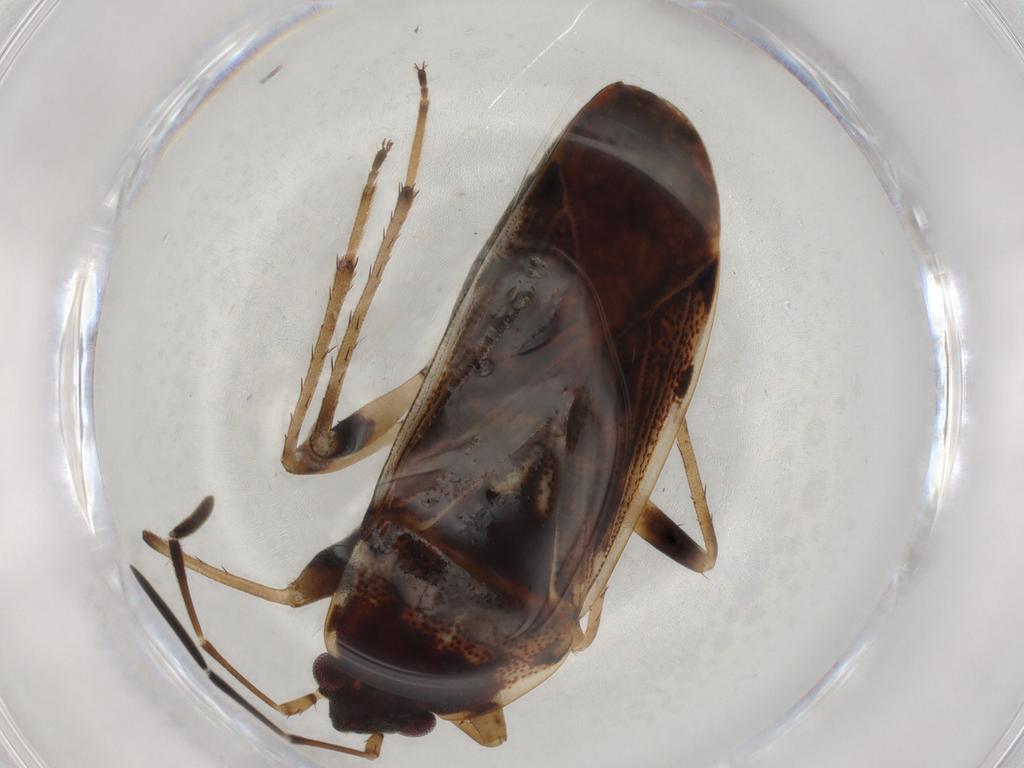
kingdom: Animalia
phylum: Arthropoda
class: Insecta
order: Hemiptera
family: Rhyparochromidae
